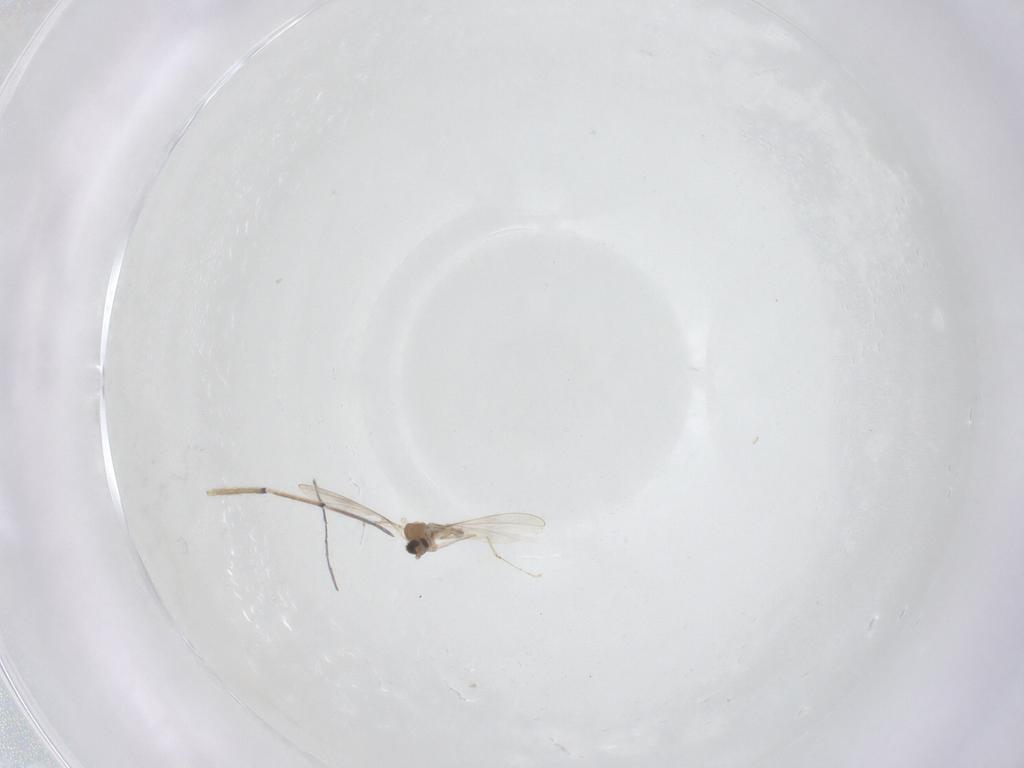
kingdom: Animalia
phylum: Arthropoda
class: Insecta
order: Diptera
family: Cecidomyiidae
